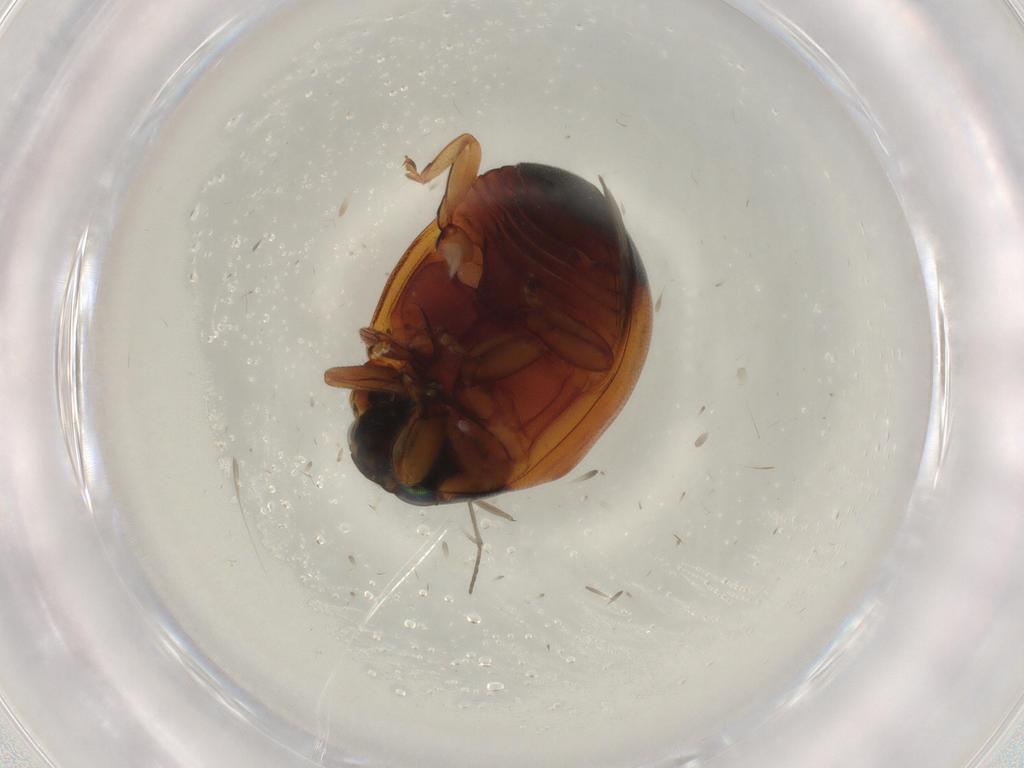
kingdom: Animalia
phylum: Arthropoda
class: Insecta
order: Coleoptera
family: Coccinellidae
